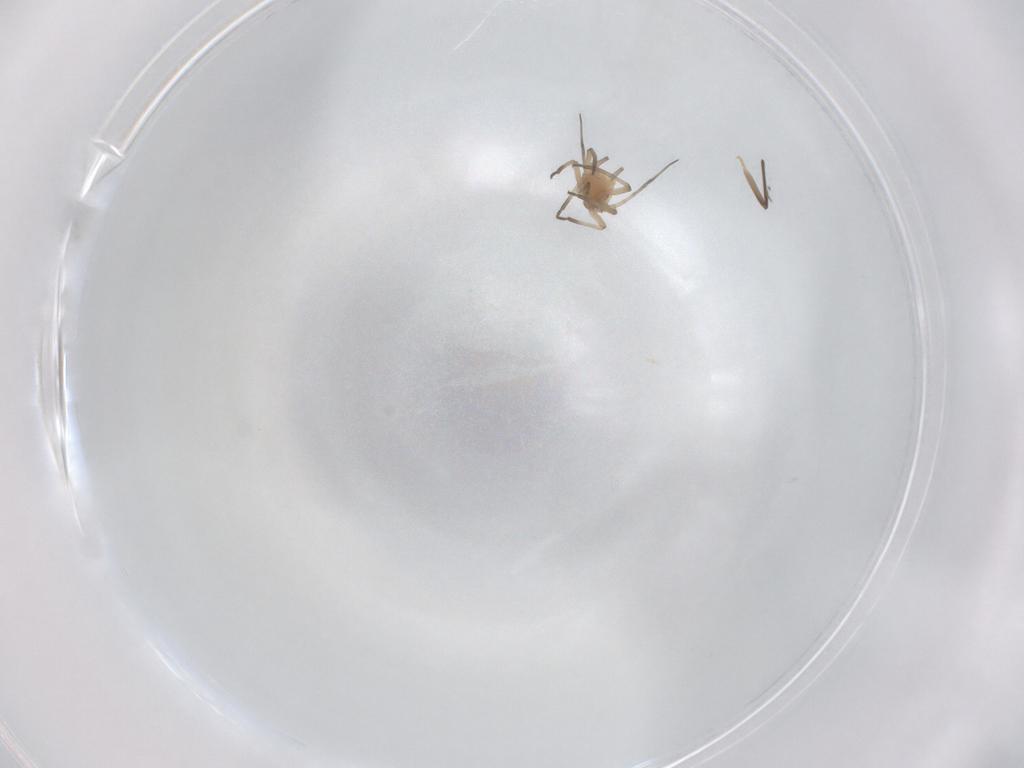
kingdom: Animalia
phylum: Arthropoda
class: Insecta
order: Hemiptera
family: Aphididae
